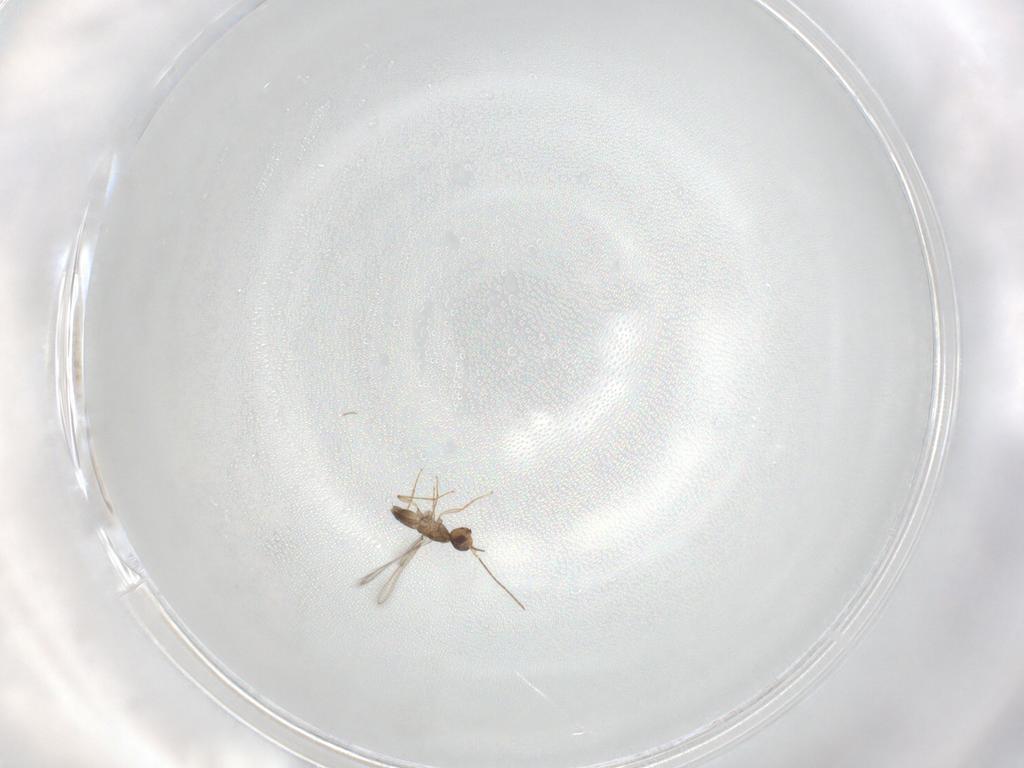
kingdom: Animalia
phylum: Arthropoda
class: Insecta
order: Hymenoptera
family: Mymaridae
